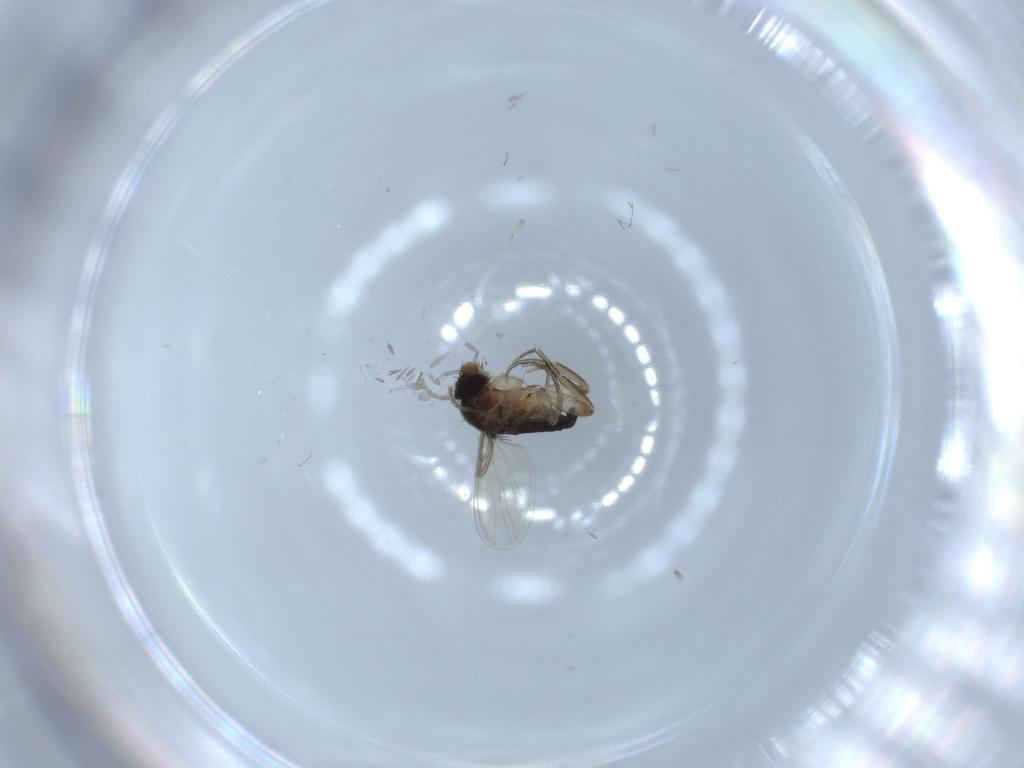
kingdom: Animalia
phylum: Arthropoda
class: Insecta
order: Diptera
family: Phoridae
